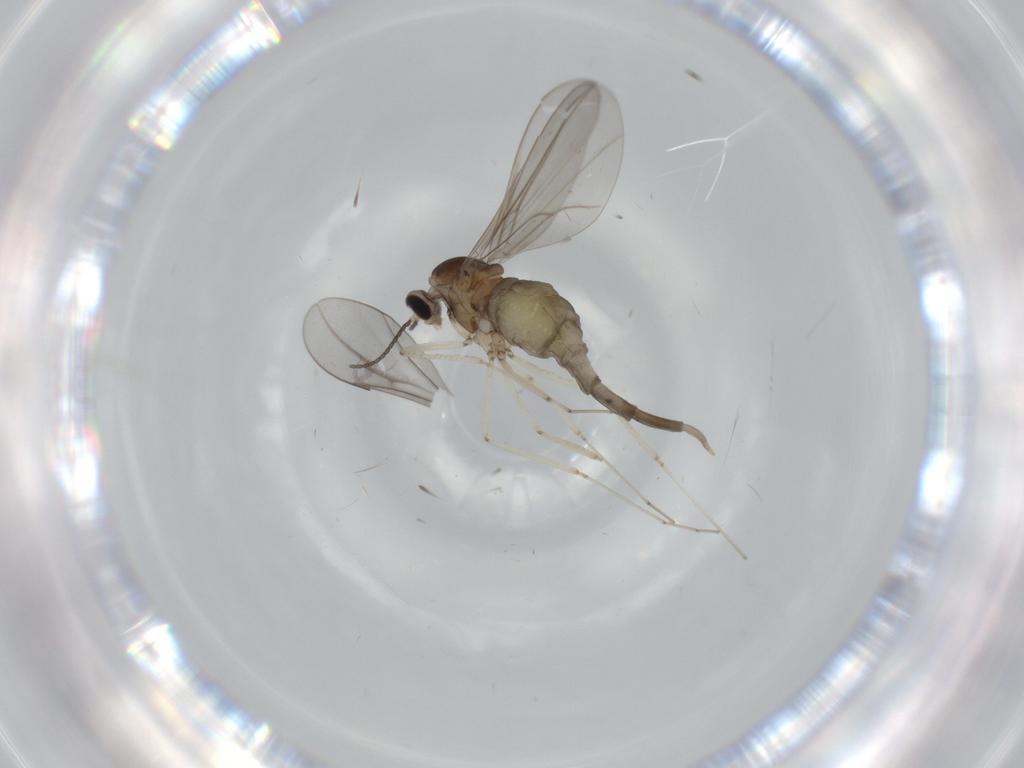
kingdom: Animalia
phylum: Arthropoda
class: Insecta
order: Diptera
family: Cecidomyiidae
